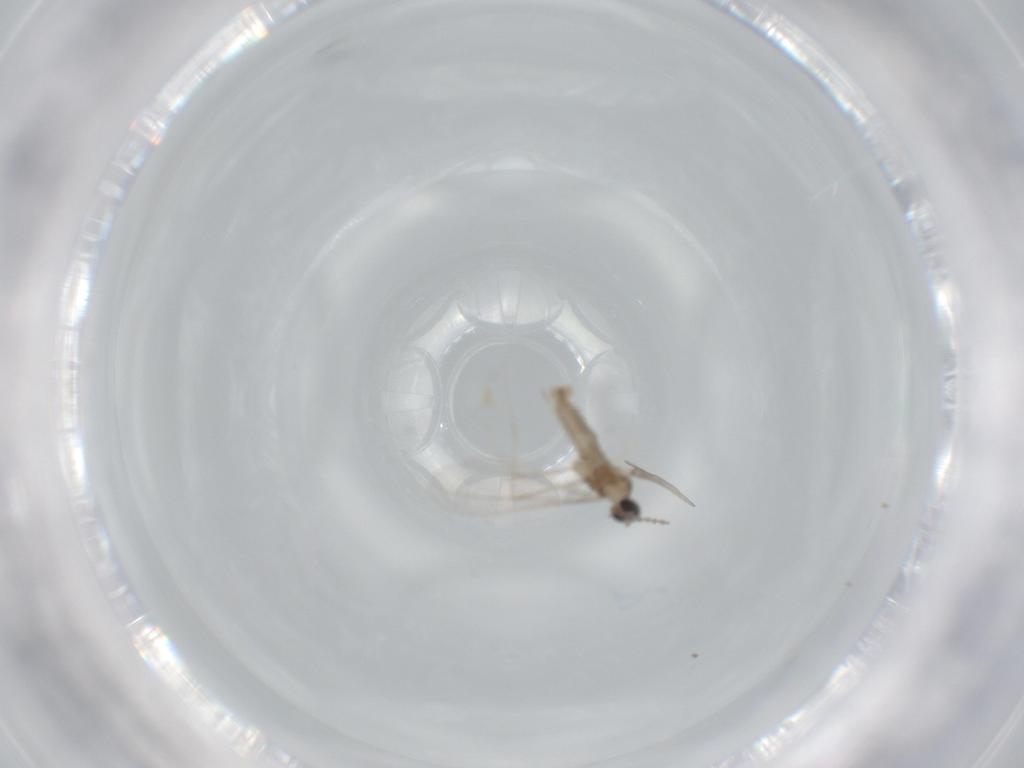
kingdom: Animalia
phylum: Arthropoda
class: Insecta
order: Diptera
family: Cecidomyiidae
